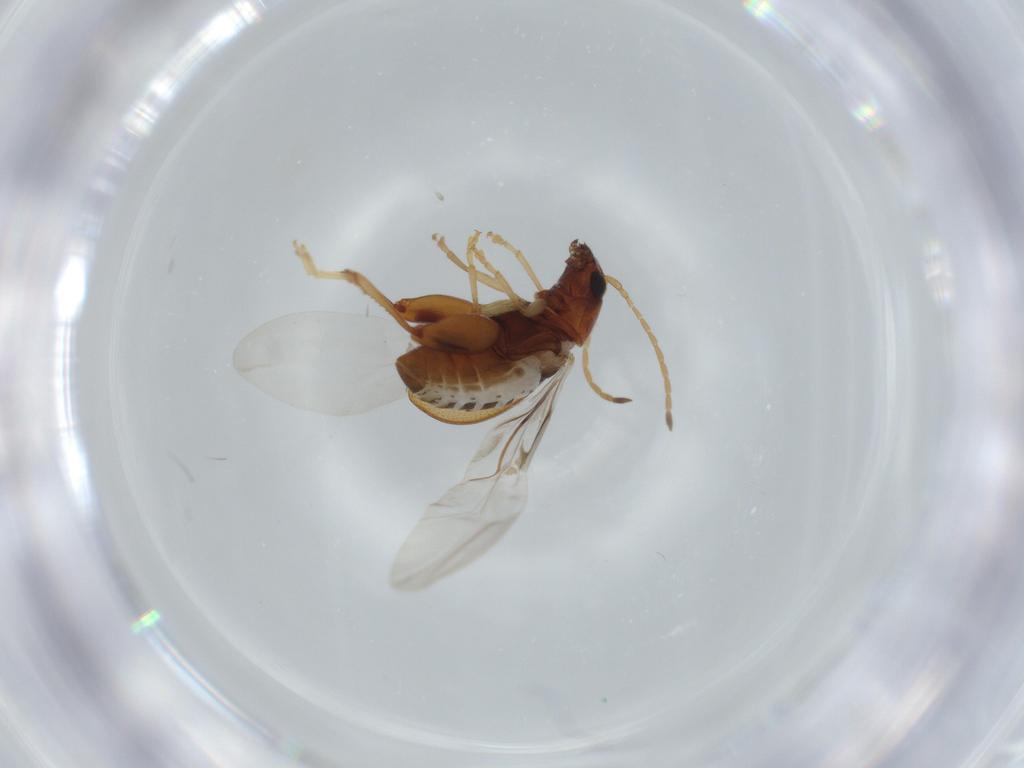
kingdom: Animalia
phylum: Arthropoda
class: Insecta
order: Coleoptera
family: Chrysomelidae
